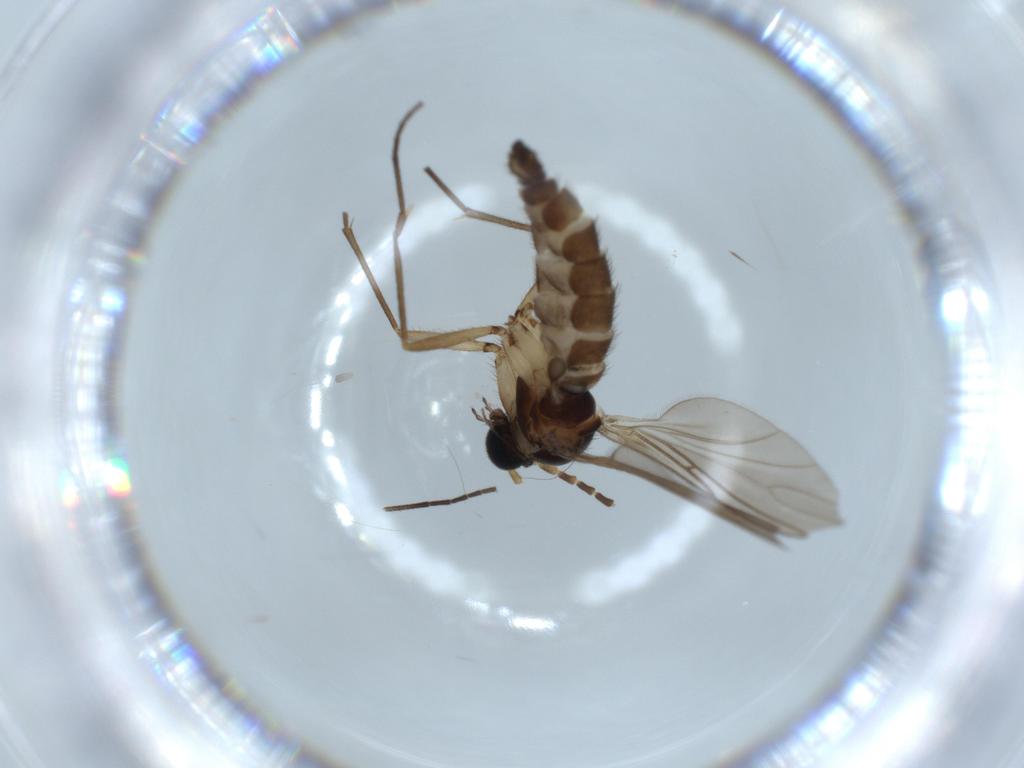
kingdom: Animalia
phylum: Arthropoda
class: Insecta
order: Diptera
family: Sciaridae
